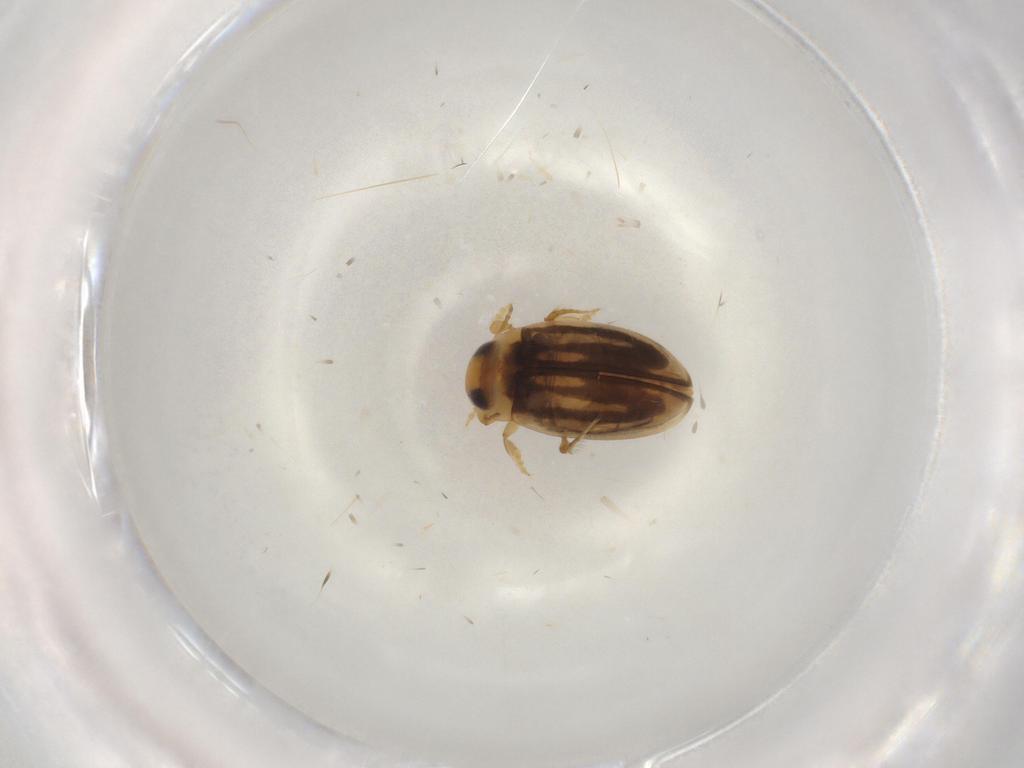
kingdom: Animalia
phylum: Arthropoda
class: Insecta
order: Coleoptera
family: Dytiscidae
